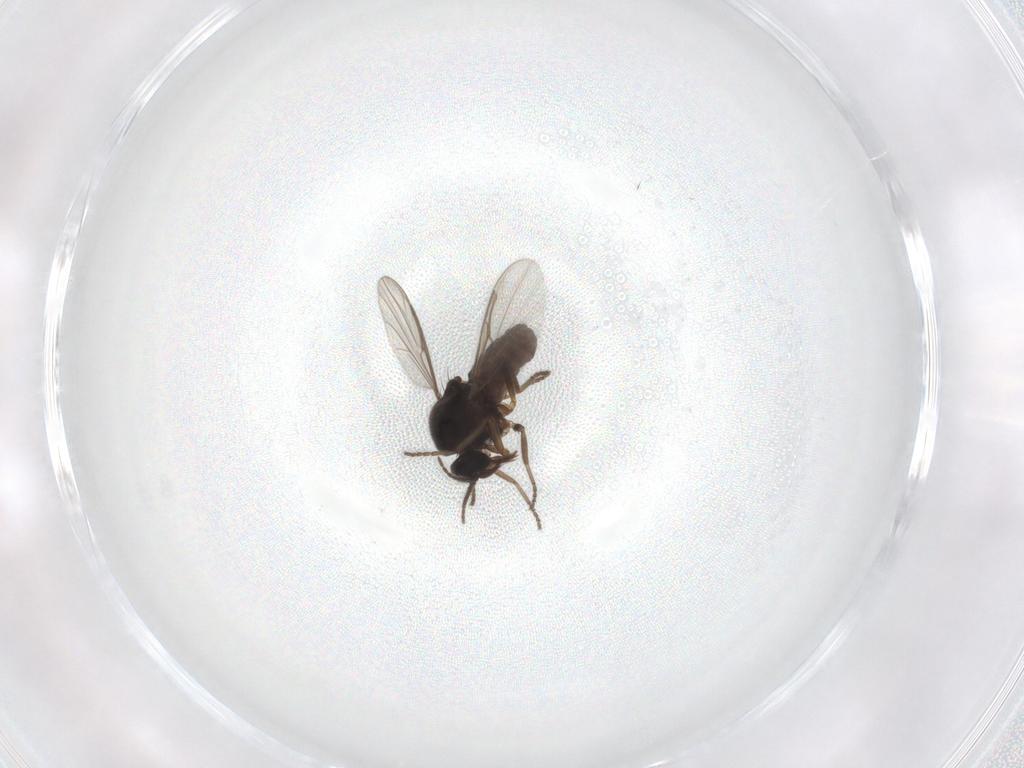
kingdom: Animalia
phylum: Arthropoda
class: Insecta
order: Diptera
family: Ceratopogonidae
